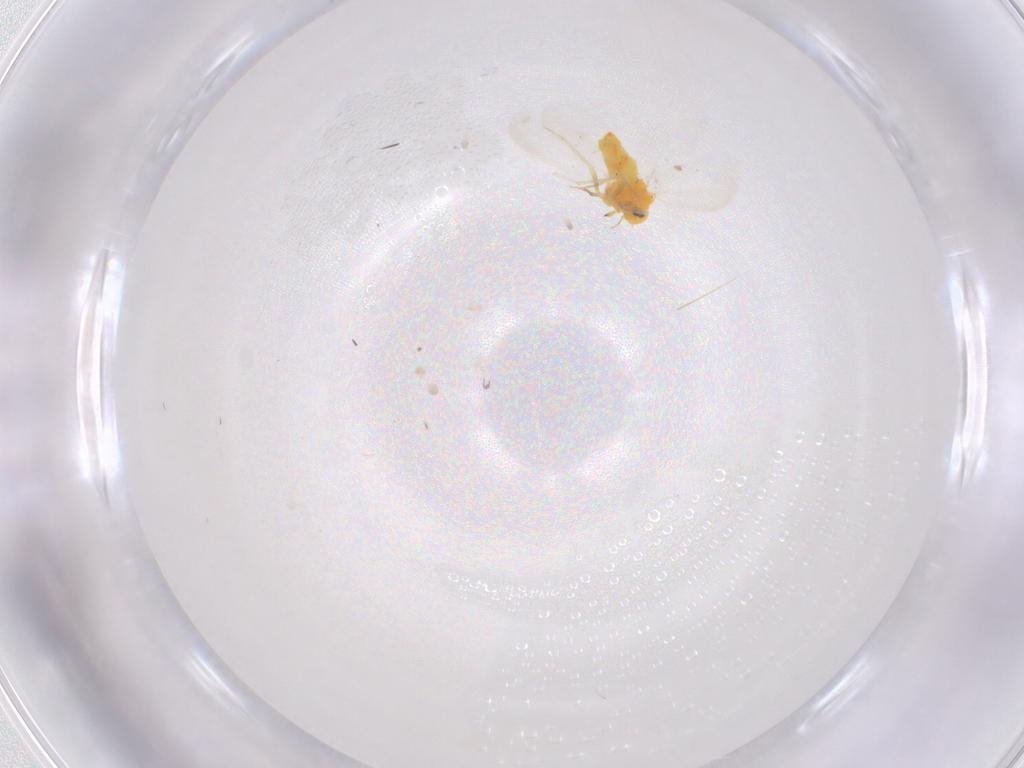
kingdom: Animalia
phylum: Arthropoda
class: Insecta
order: Hemiptera
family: Aleyrodidae
